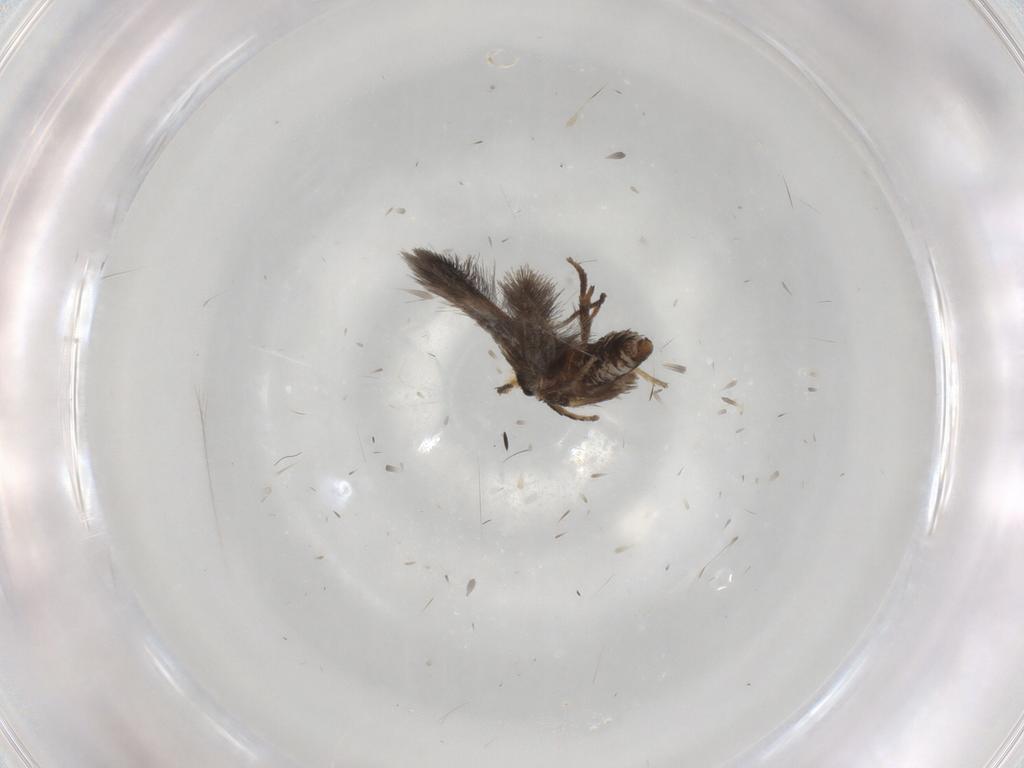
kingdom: Animalia
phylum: Arthropoda
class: Insecta
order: Lepidoptera
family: Nepticulidae
